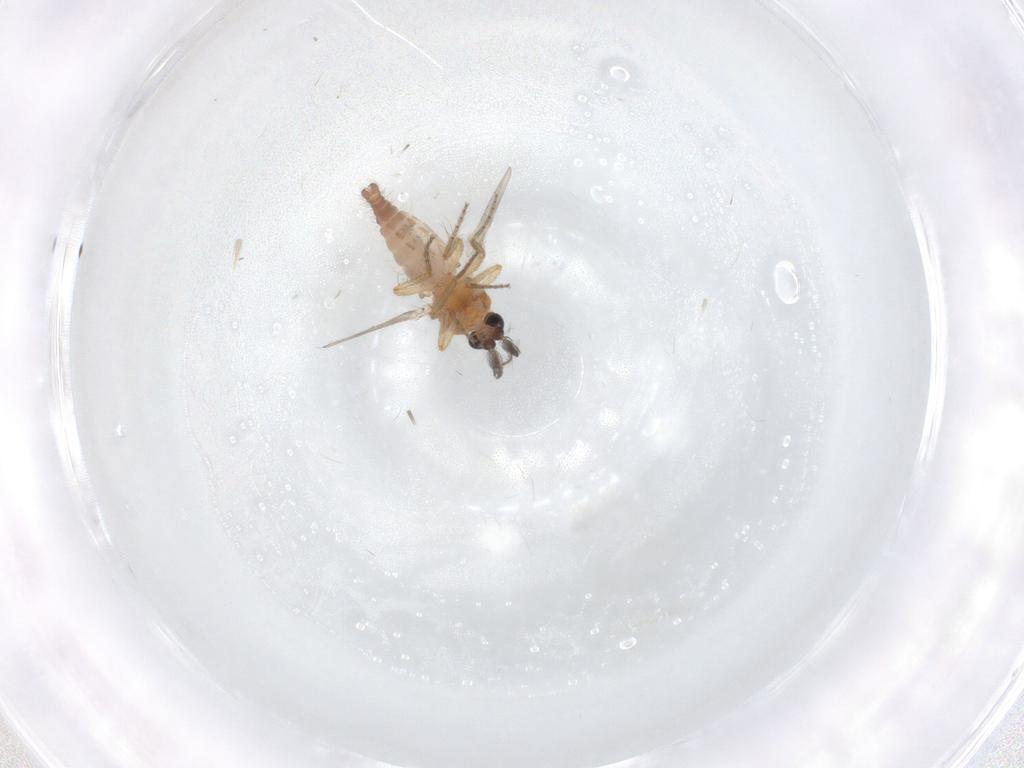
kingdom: Animalia
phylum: Arthropoda
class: Insecta
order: Diptera
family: Ceratopogonidae
